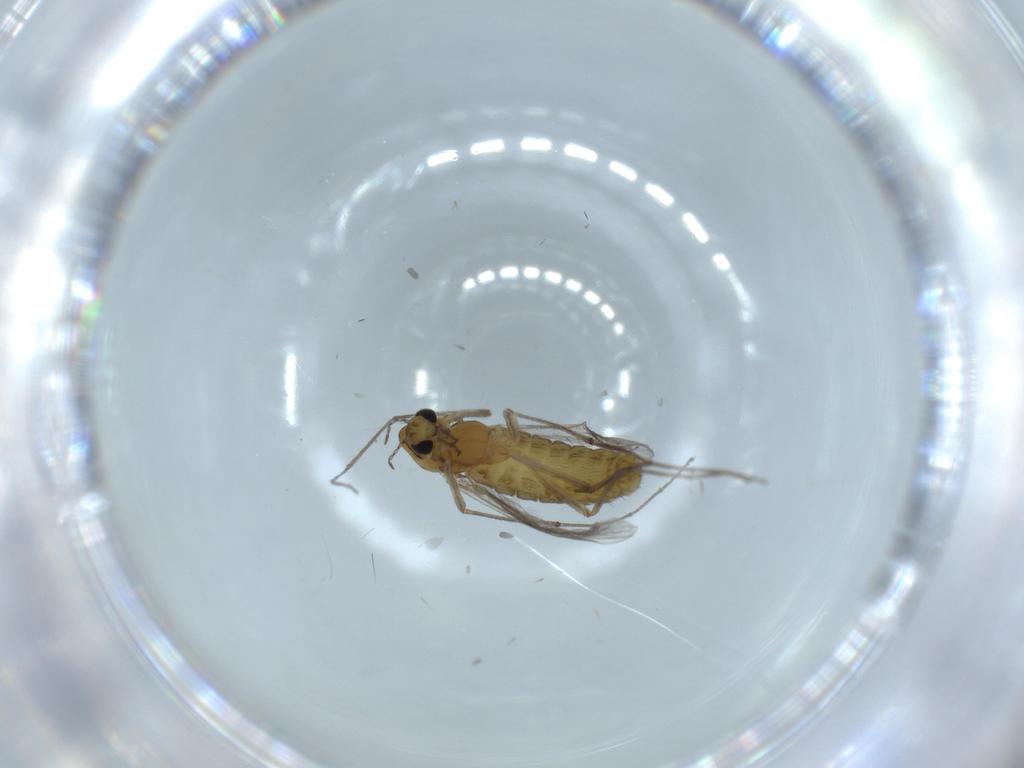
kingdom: Animalia
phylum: Arthropoda
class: Insecta
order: Diptera
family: Chironomidae
